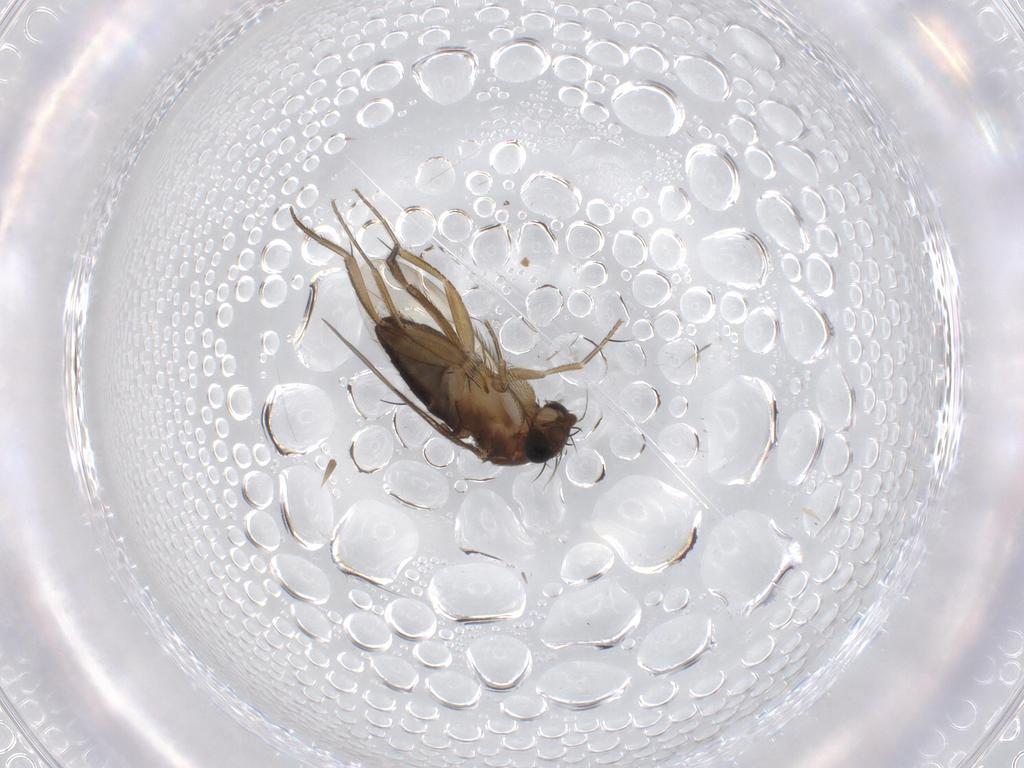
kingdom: Animalia
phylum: Arthropoda
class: Insecta
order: Diptera
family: Phoridae
